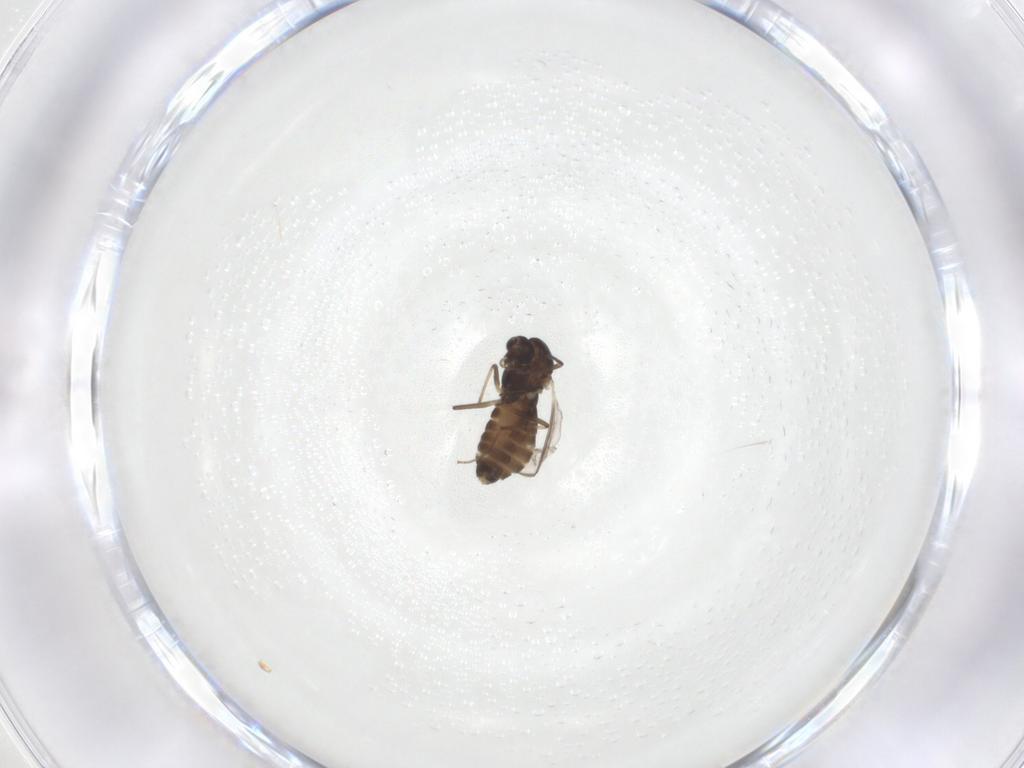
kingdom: Animalia
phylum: Arthropoda
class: Insecta
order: Diptera
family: Chironomidae
